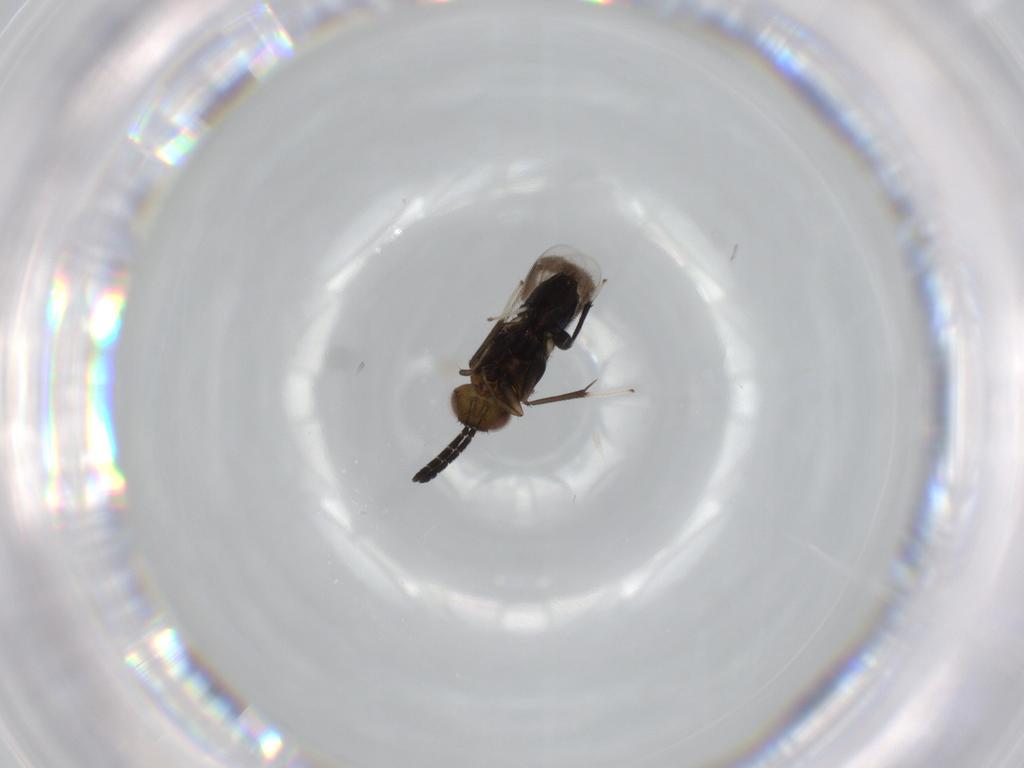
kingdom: Animalia
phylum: Arthropoda
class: Insecta
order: Hymenoptera
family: Aphelinidae
